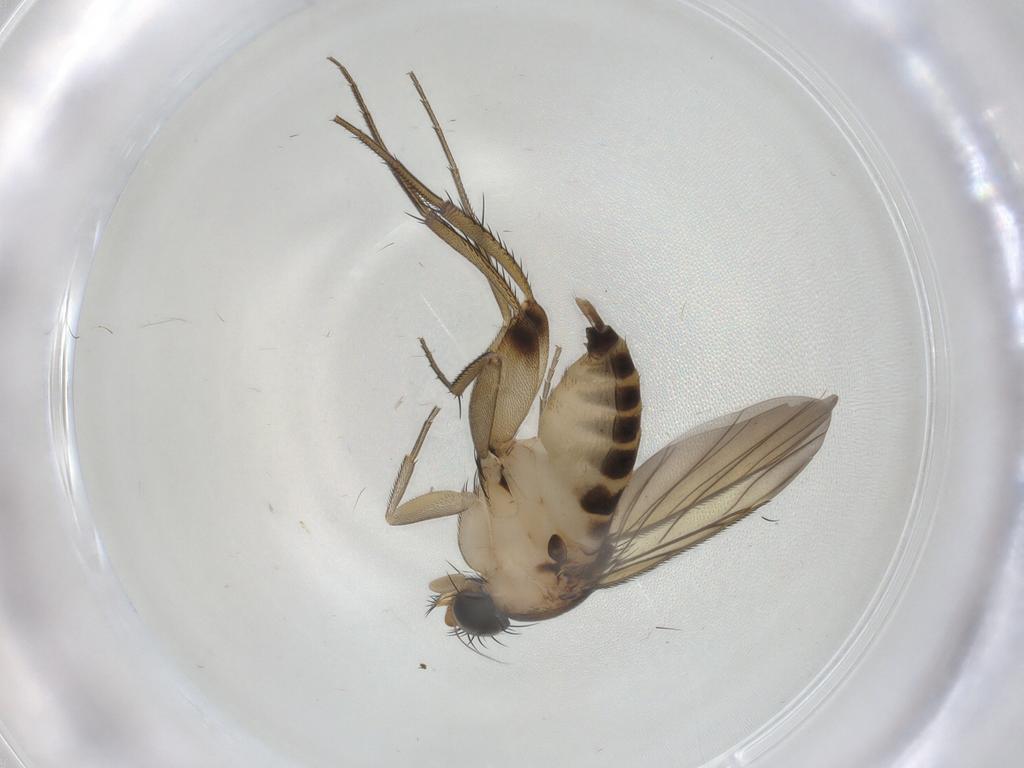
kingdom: Animalia
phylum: Arthropoda
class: Insecta
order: Diptera
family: Phoridae
